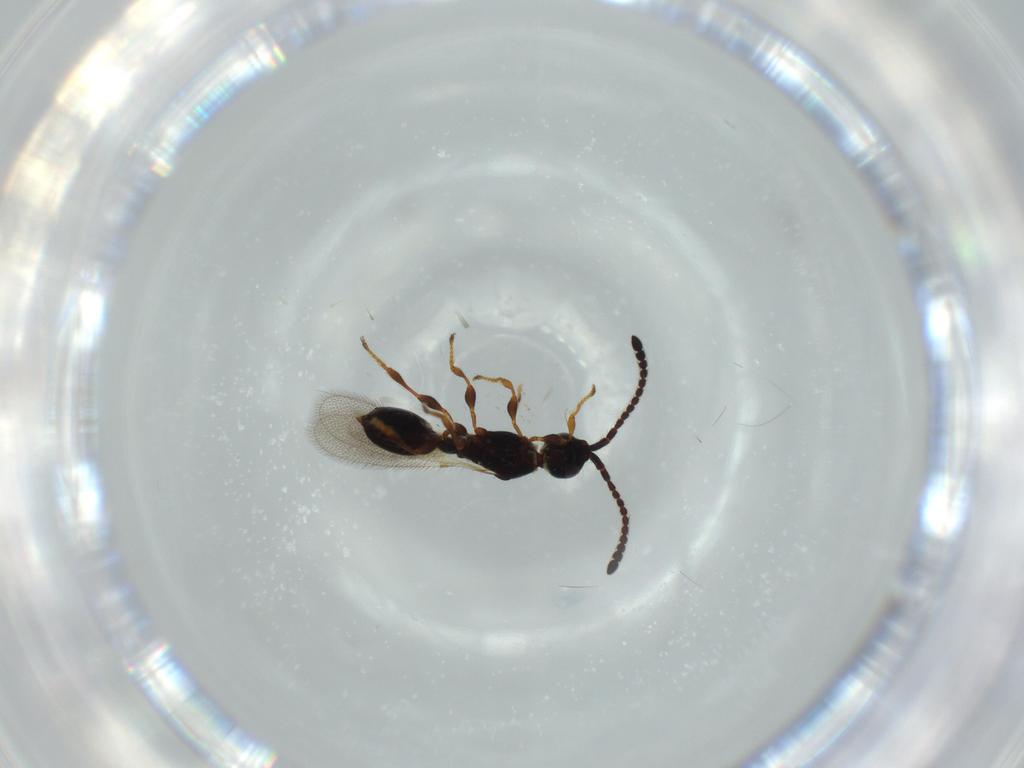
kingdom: Animalia
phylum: Arthropoda
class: Insecta
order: Hymenoptera
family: Diapriidae
